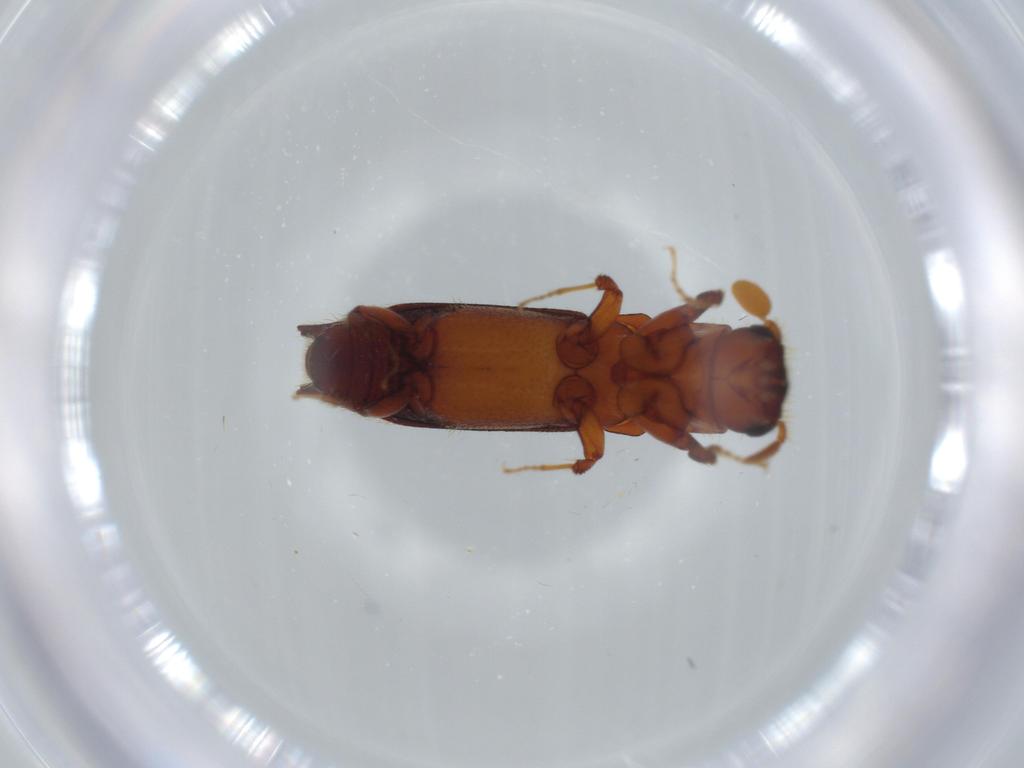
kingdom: Animalia
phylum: Arthropoda
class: Insecta
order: Coleoptera
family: Curculionidae
